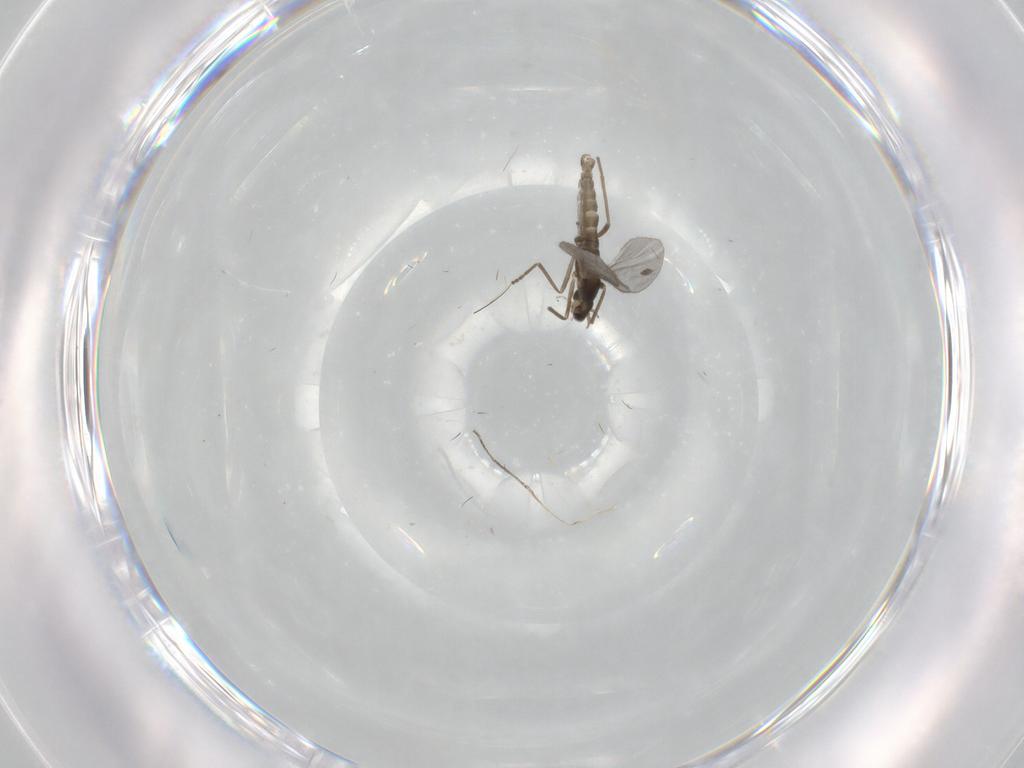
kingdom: Animalia
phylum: Arthropoda
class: Insecta
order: Diptera
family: Cecidomyiidae
